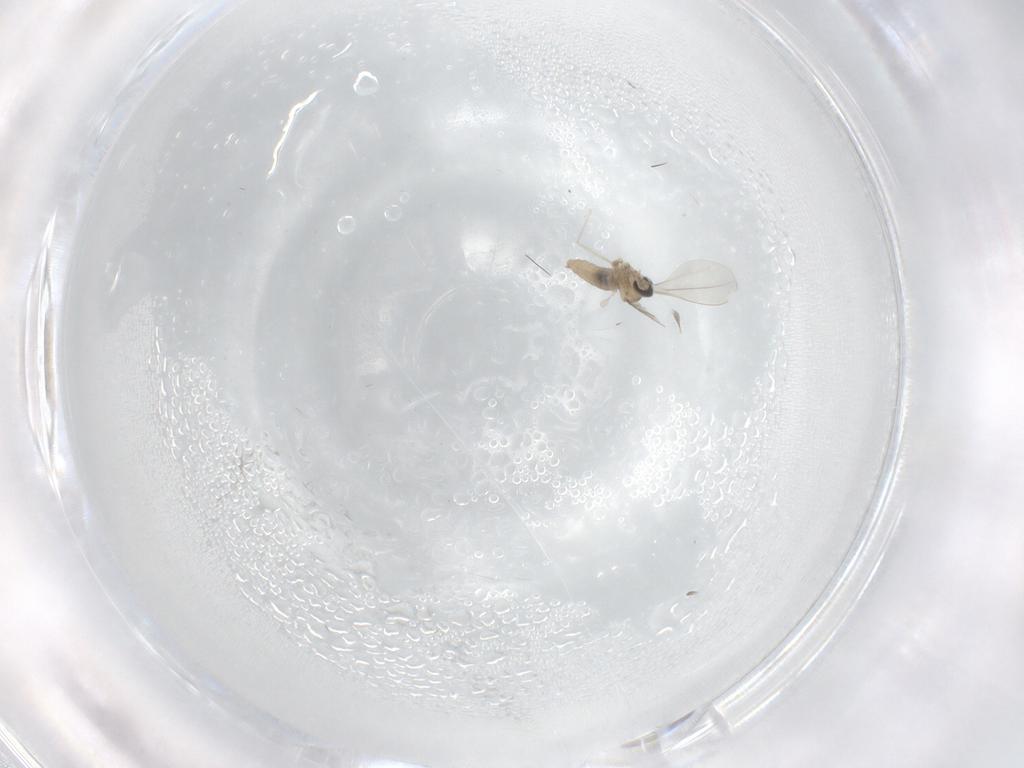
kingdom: Animalia
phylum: Arthropoda
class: Insecta
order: Diptera
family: Cecidomyiidae
